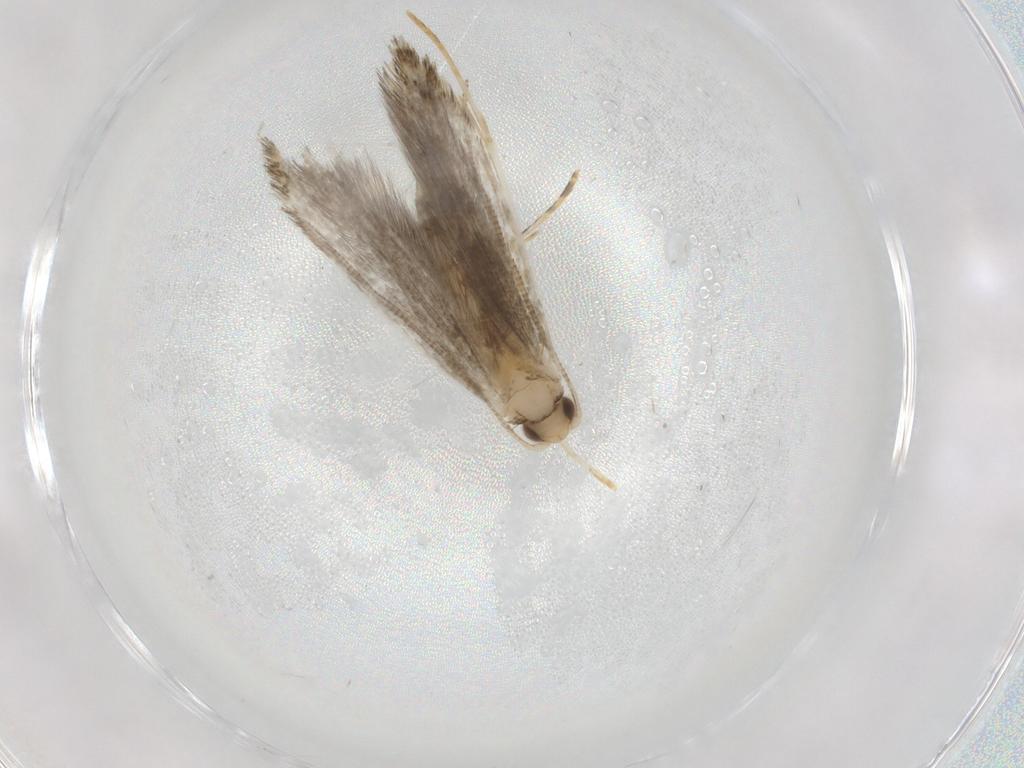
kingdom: Animalia
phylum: Arthropoda
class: Insecta
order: Lepidoptera
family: Tineidae
